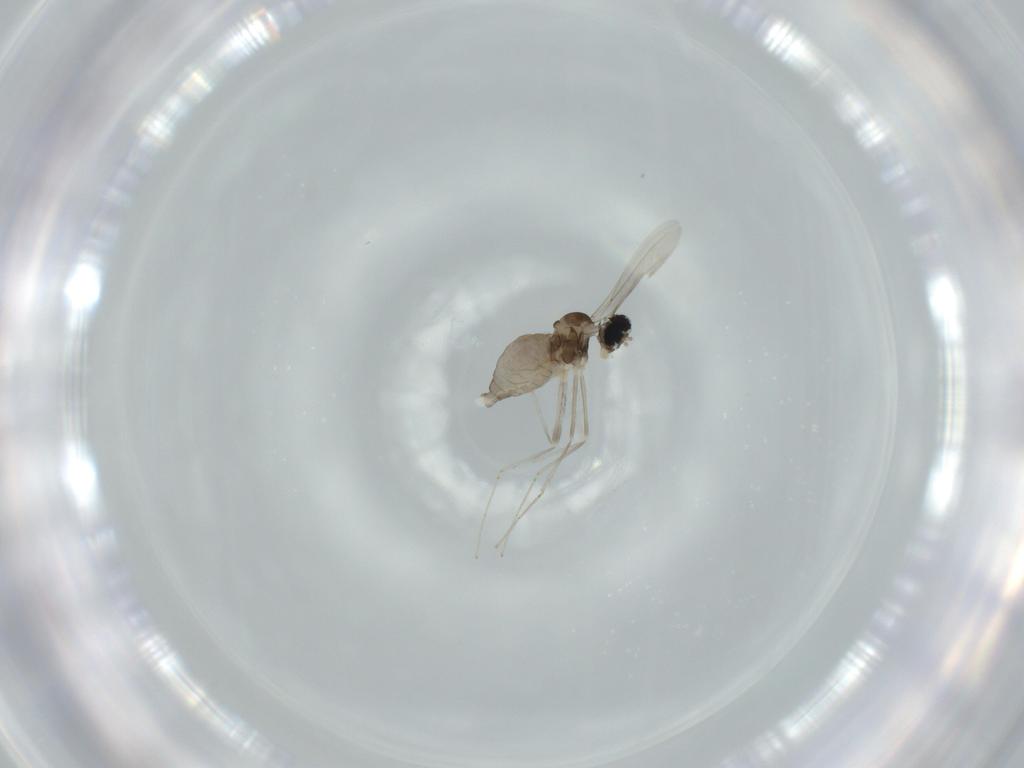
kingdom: Animalia
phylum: Arthropoda
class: Insecta
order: Diptera
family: Cecidomyiidae
